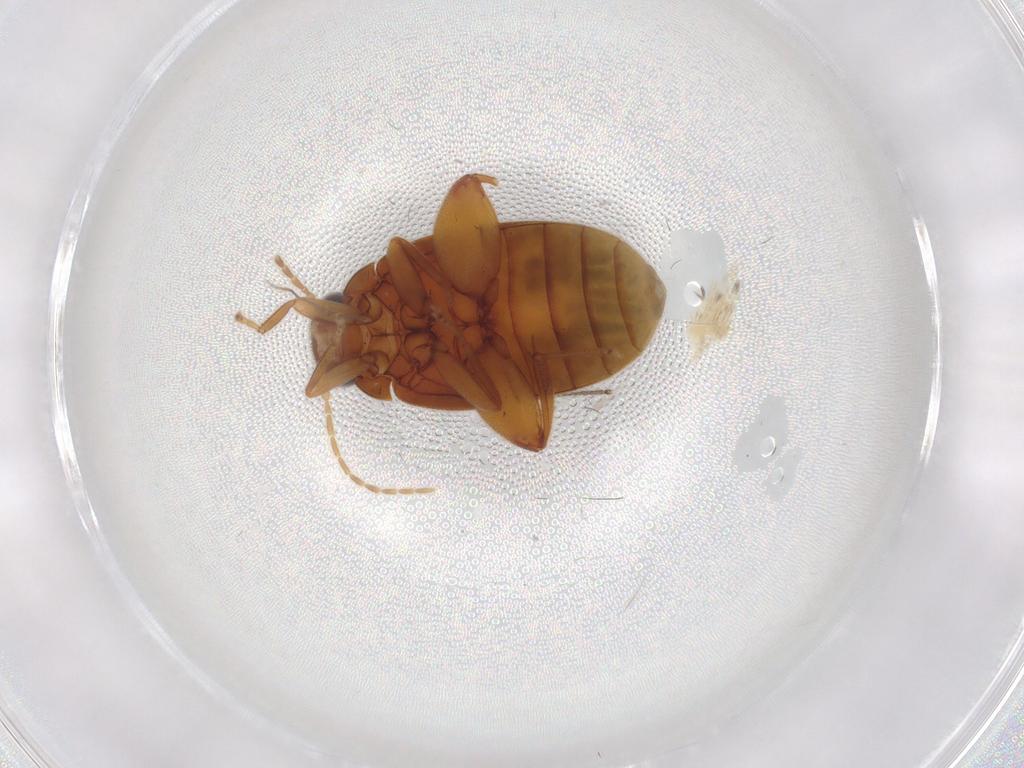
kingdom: Animalia
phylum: Arthropoda
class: Insecta
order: Coleoptera
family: Scirtidae
